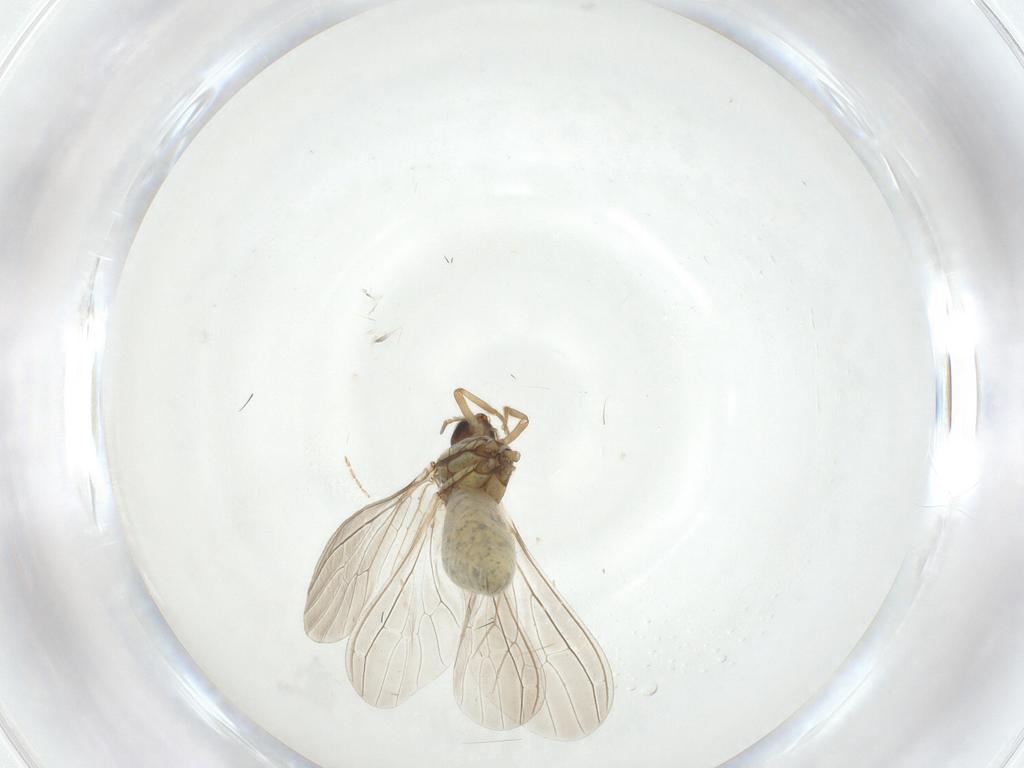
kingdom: Animalia
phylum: Arthropoda
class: Insecta
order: Neuroptera
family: Coniopterygidae
